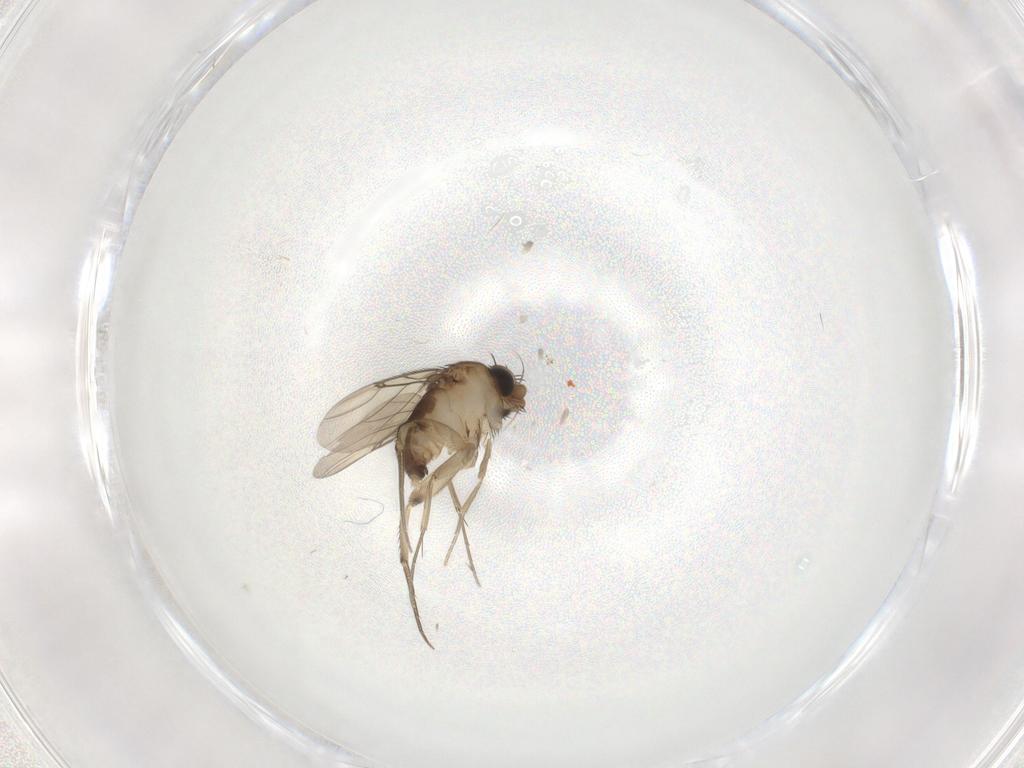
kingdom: Animalia
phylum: Arthropoda
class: Insecta
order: Diptera
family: Phoridae
